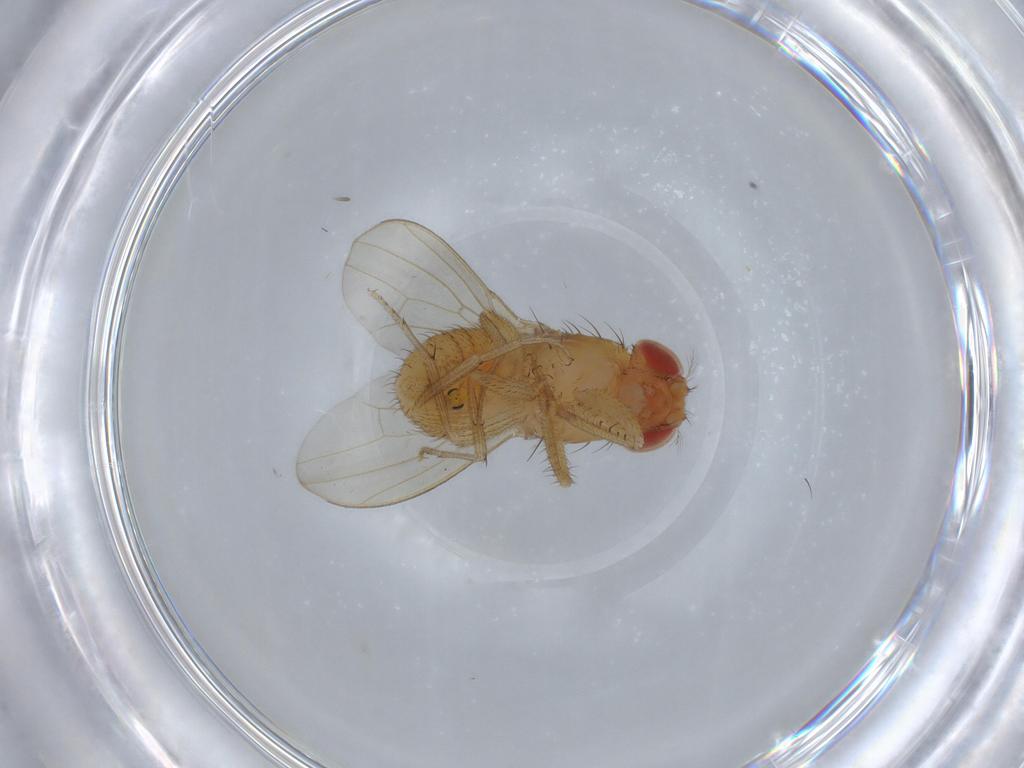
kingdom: Animalia
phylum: Arthropoda
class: Insecta
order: Diptera
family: Drosophilidae
